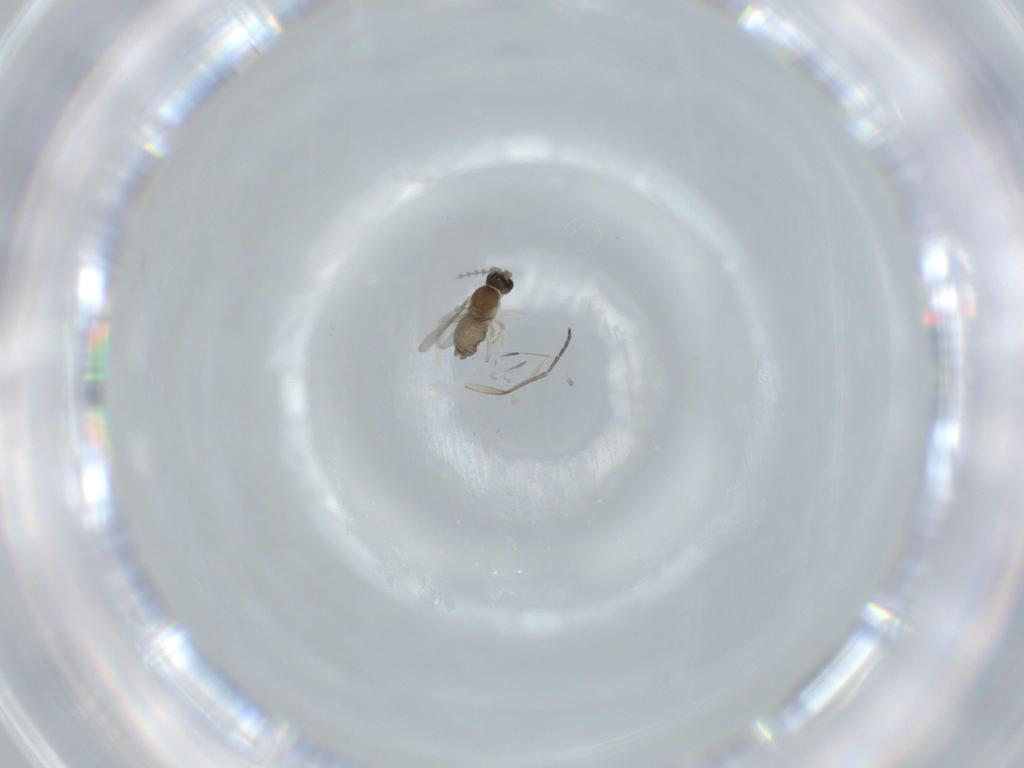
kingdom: Animalia
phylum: Arthropoda
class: Insecta
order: Diptera
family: Cecidomyiidae
